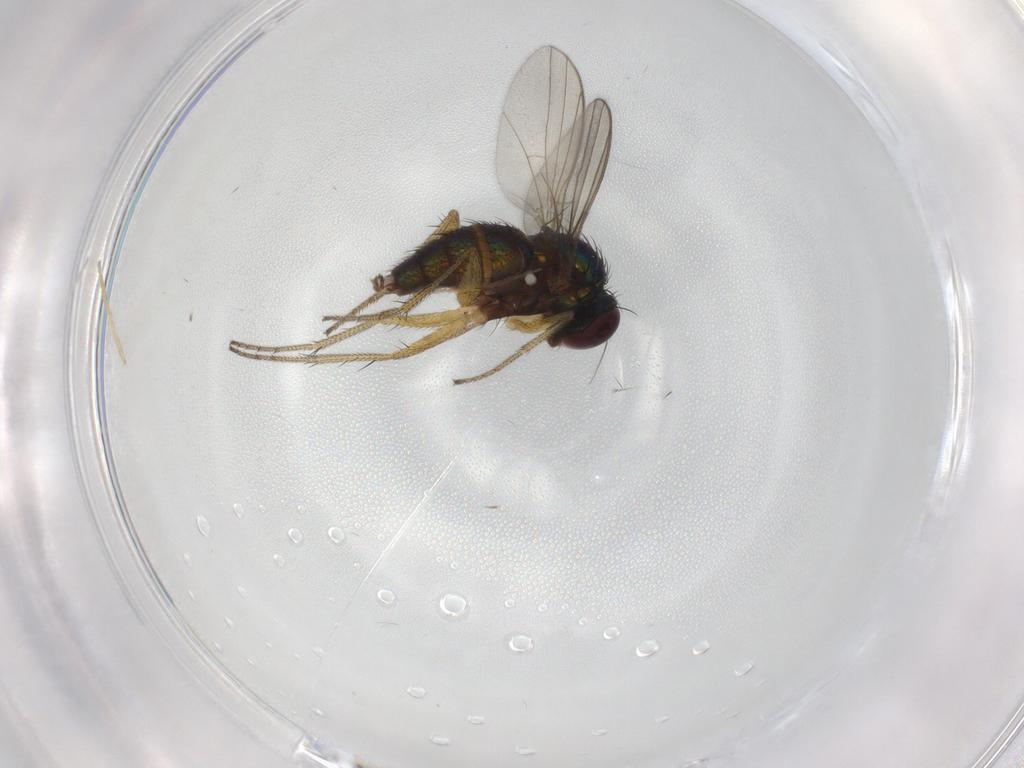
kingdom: Animalia
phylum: Arthropoda
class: Insecta
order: Diptera
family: Sciaridae
